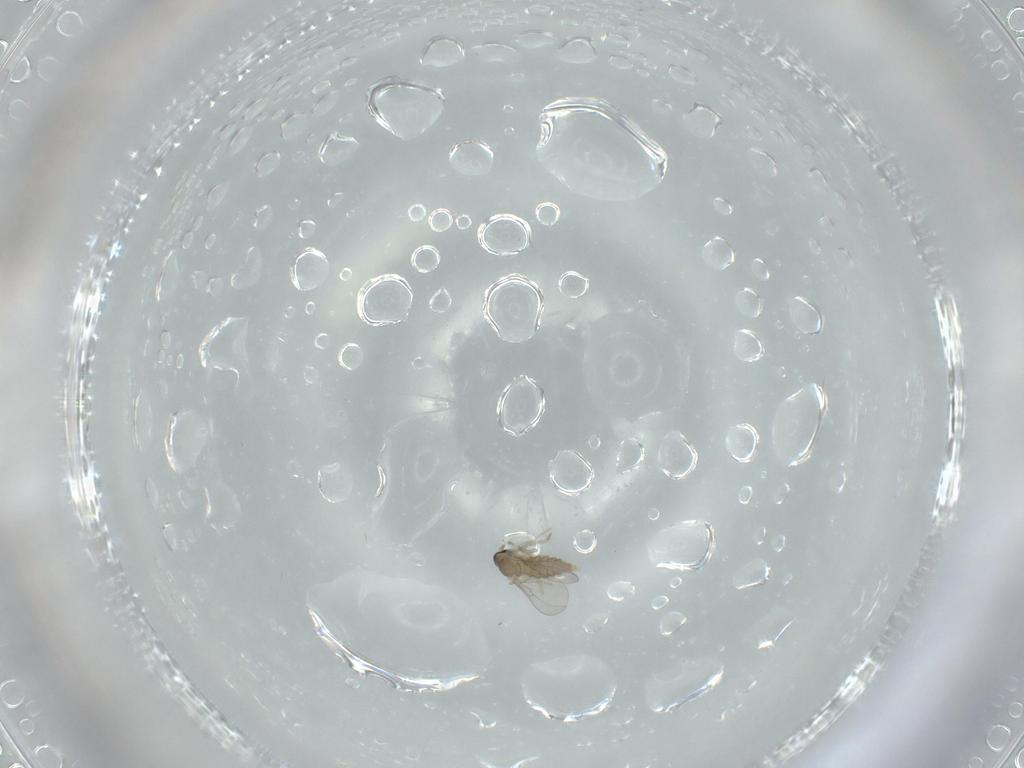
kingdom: Animalia
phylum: Arthropoda
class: Insecta
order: Diptera
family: Cecidomyiidae
